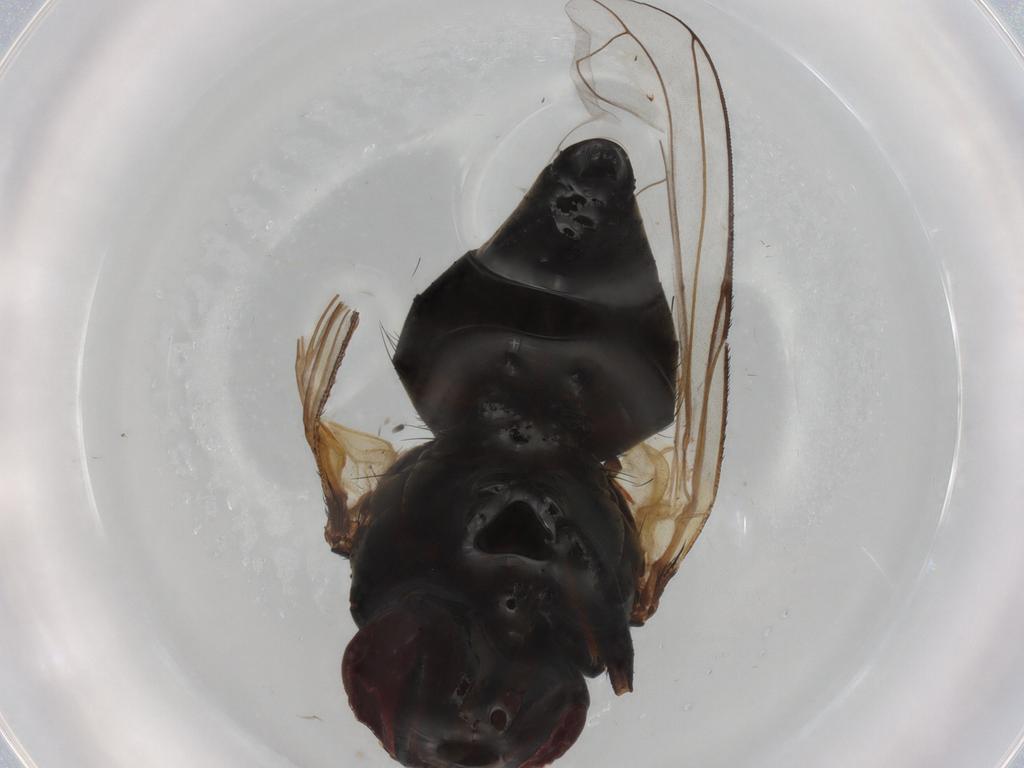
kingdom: Animalia
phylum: Arthropoda
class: Insecta
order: Diptera
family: Tachinidae
